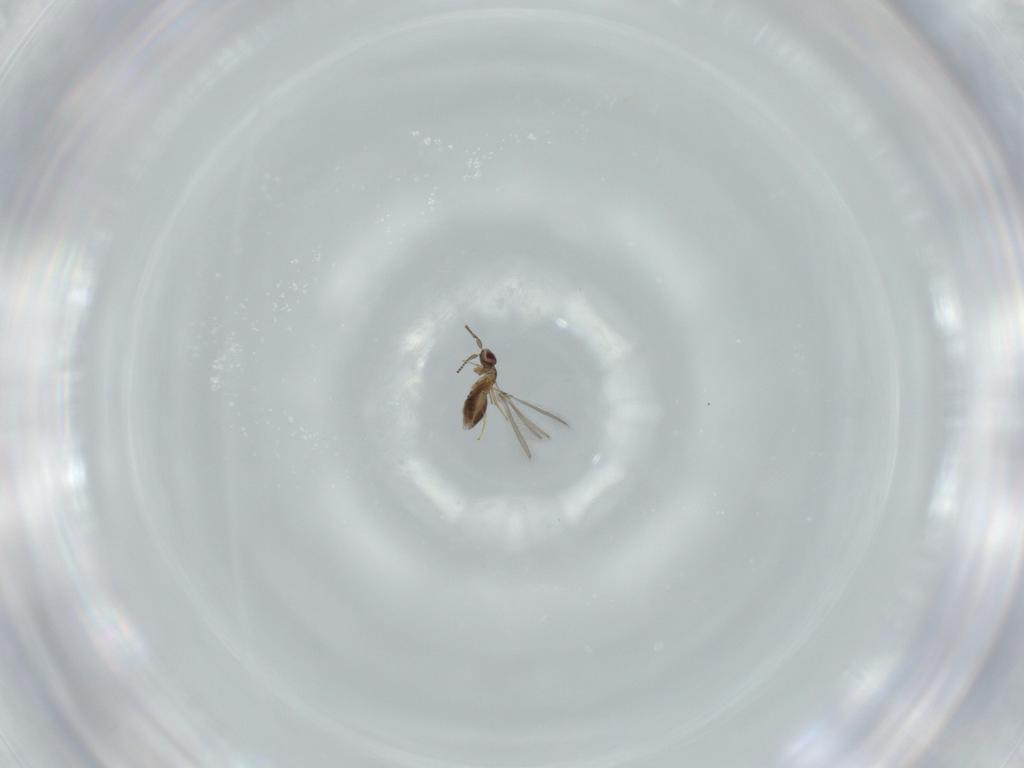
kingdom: Animalia
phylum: Arthropoda
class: Insecta
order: Hymenoptera
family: Mymaridae
